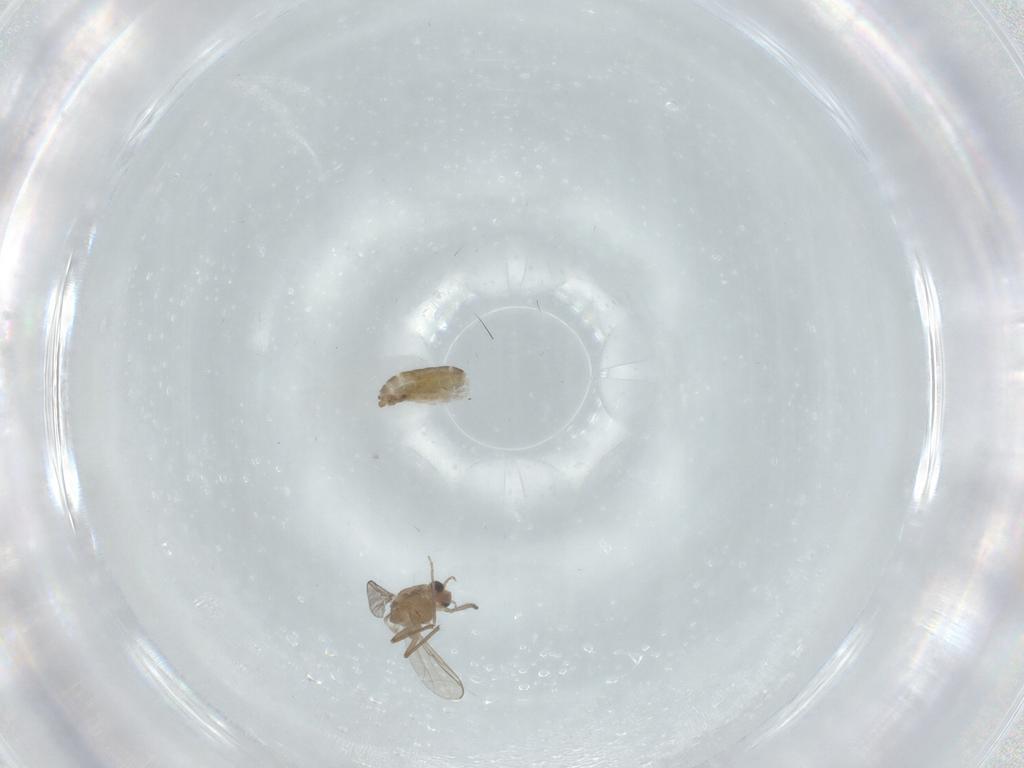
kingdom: Animalia
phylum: Arthropoda
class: Insecta
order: Diptera
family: Chironomidae
